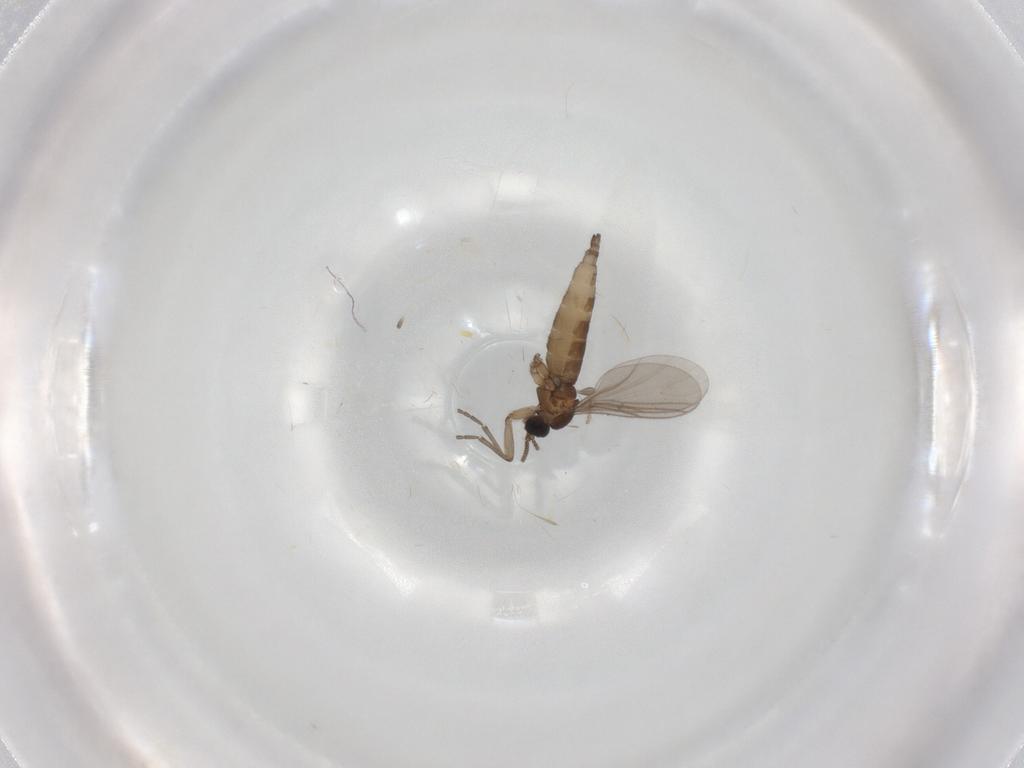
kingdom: Animalia
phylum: Arthropoda
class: Insecta
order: Diptera
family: Psychodidae
